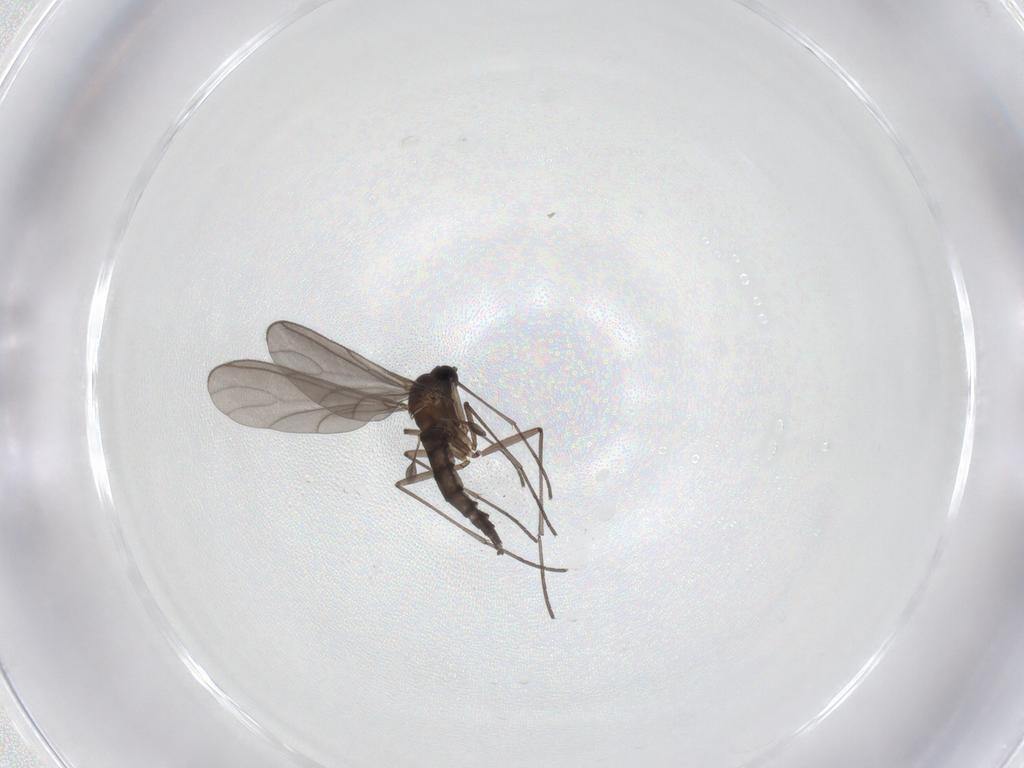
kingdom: Animalia
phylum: Arthropoda
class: Insecta
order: Diptera
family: Sciaridae
